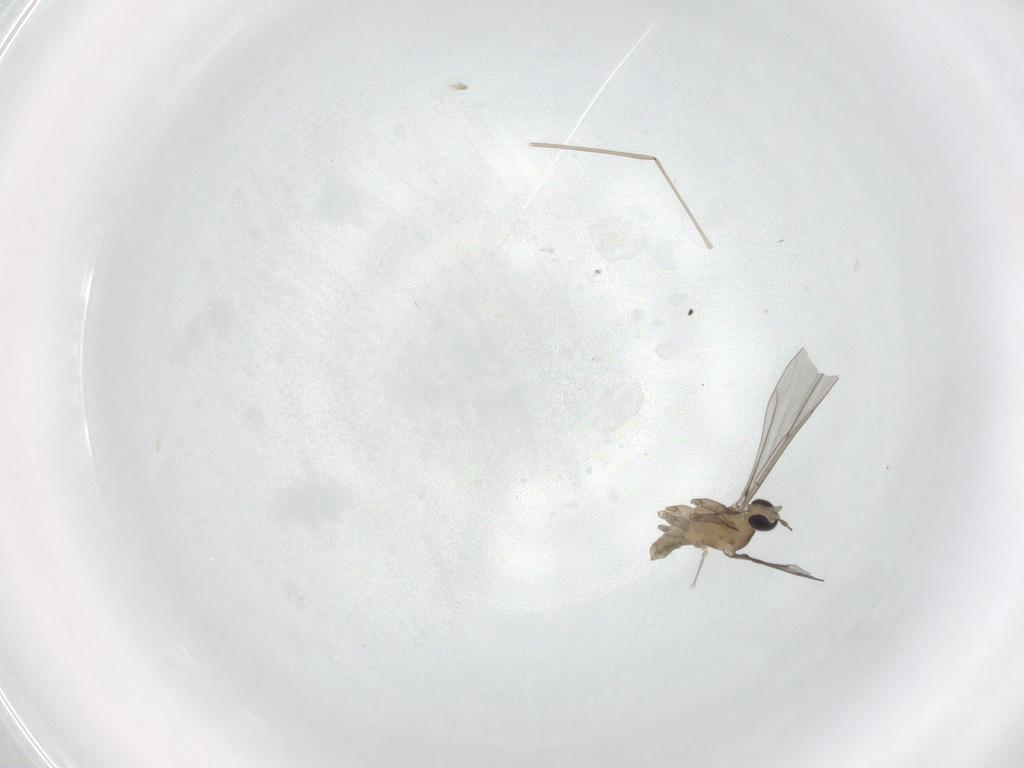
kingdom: Animalia
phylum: Arthropoda
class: Insecta
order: Diptera
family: Cecidomyiidae
